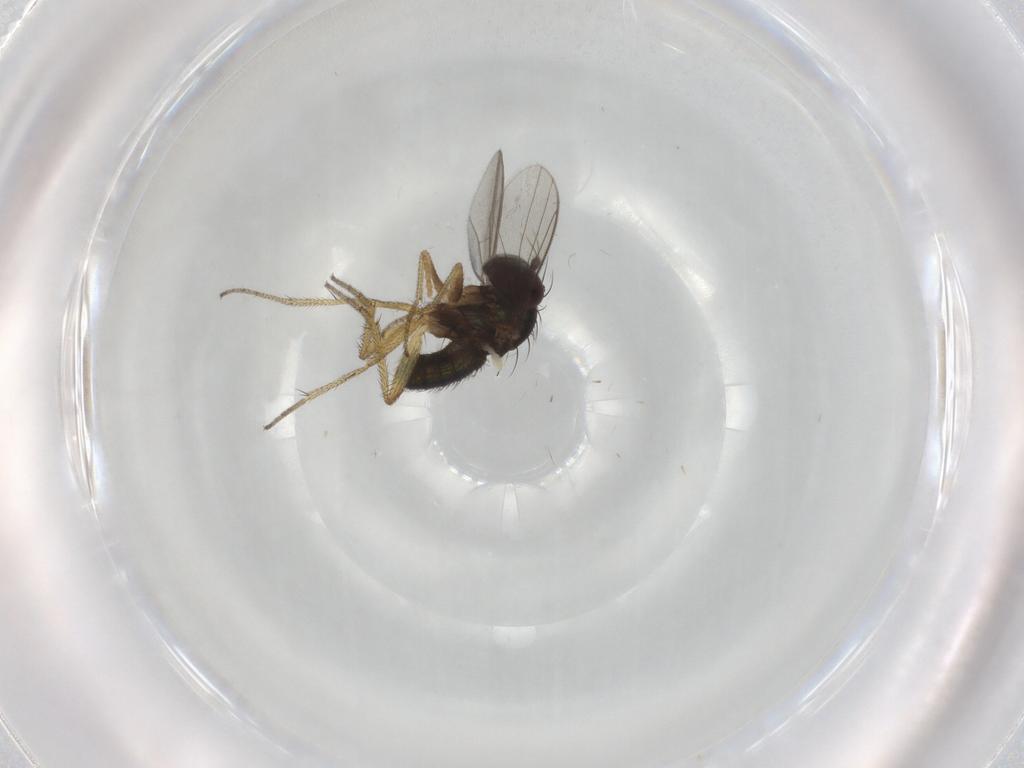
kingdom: Animalia
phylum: Arthropoda
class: Insecta
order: Diptera
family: Dolichopodidae
